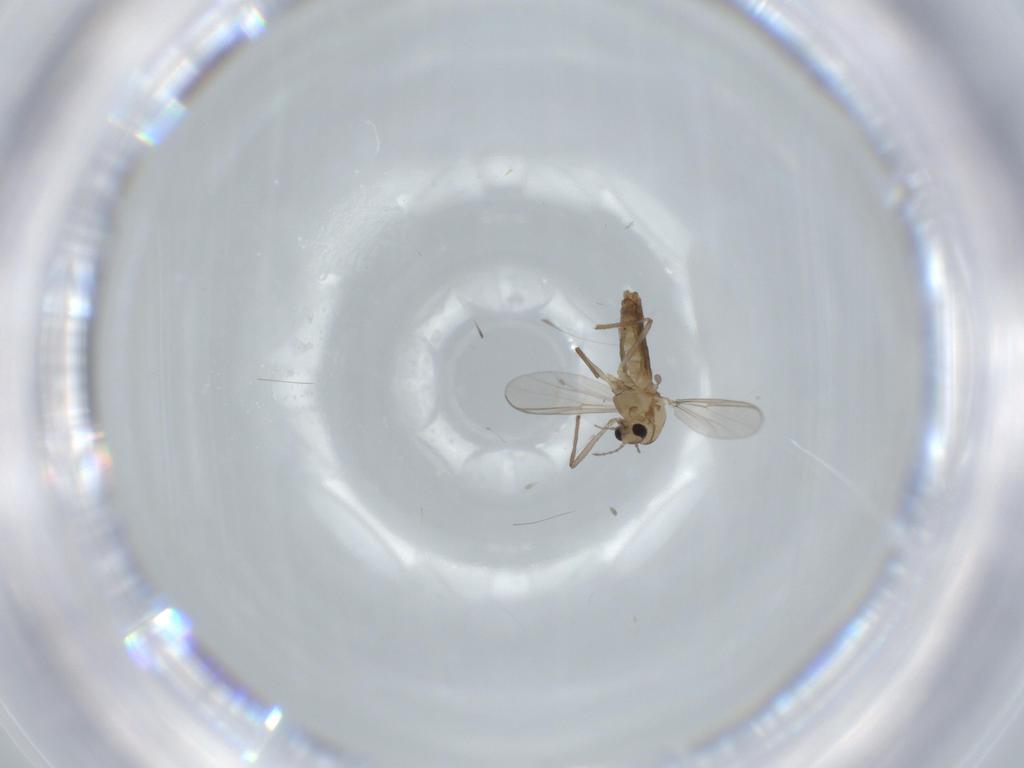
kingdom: Animalia
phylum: Arthropoda
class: Insecta
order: Diptera
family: Chironomidae
